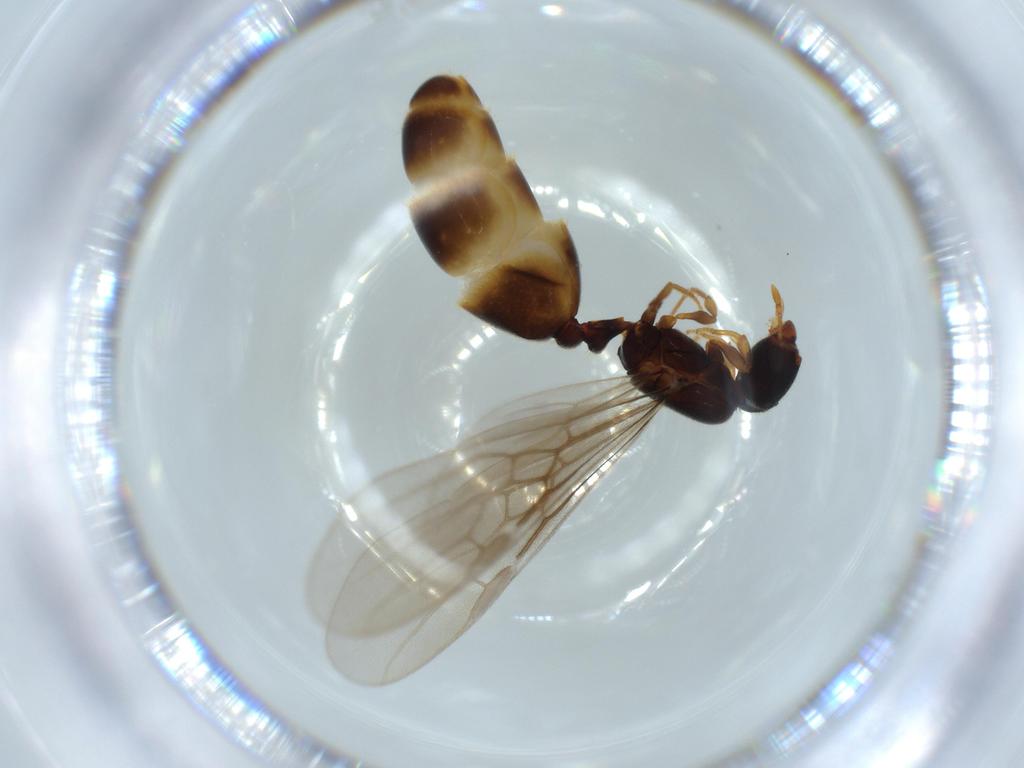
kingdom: Animalia
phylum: Arthropoda
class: Insecta
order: Hymenoptera
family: Formicidae
